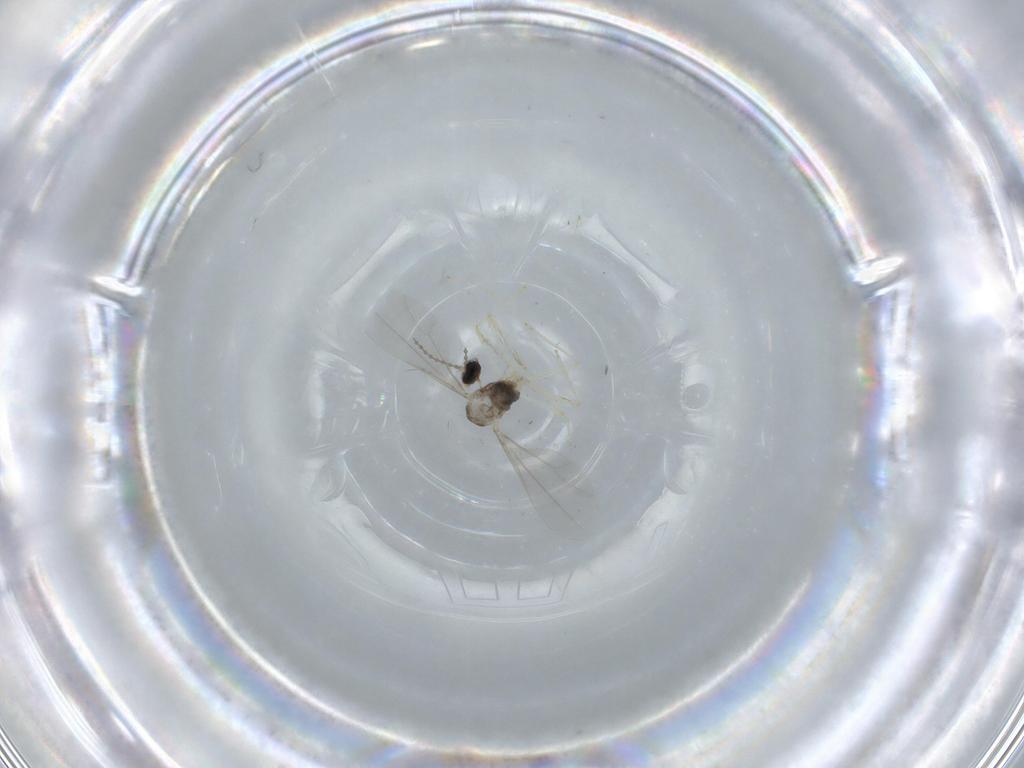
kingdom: Animalia
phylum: Arthropoda
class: Insecta
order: Diptera
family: Cecidomyiidae
